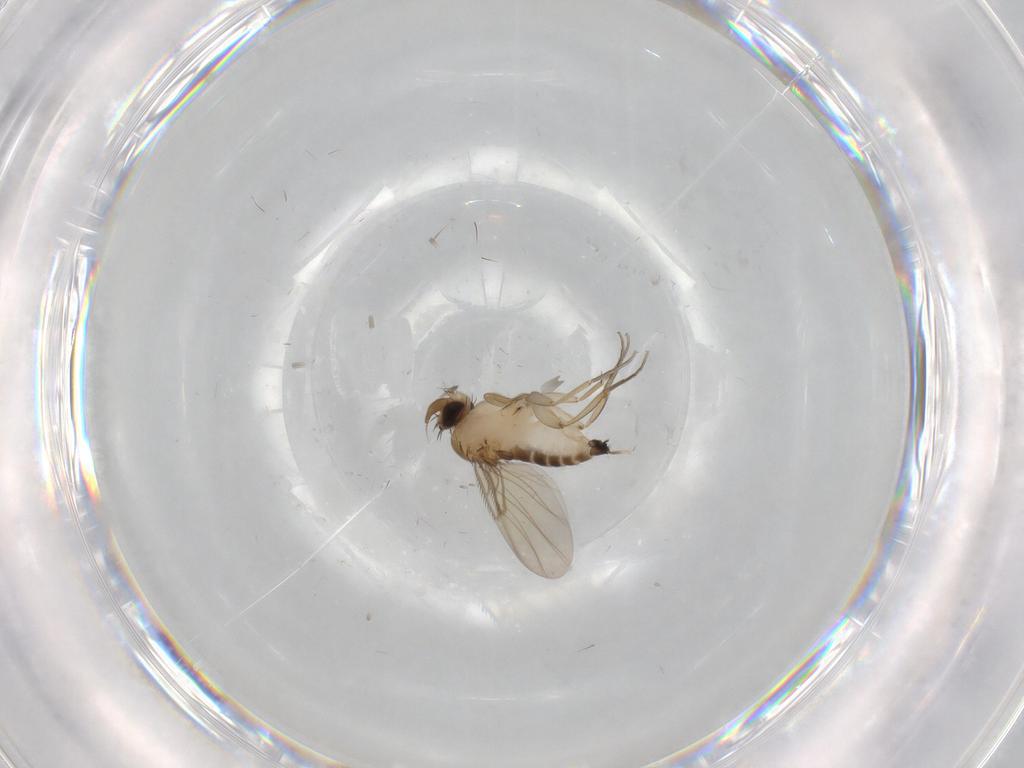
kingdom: Animalia
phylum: Arthropoda
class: Insecta
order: Diptera
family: Phoridae
